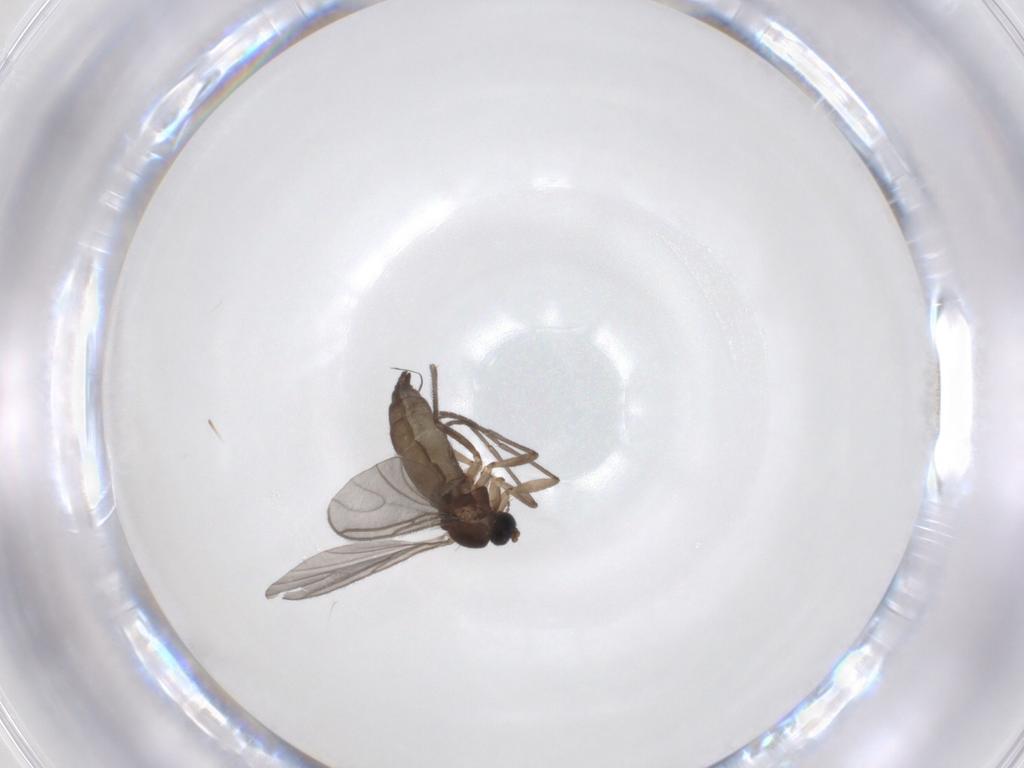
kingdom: Animalia
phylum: Arthropoda
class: Insecta
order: Diptera
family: Sciaridae
